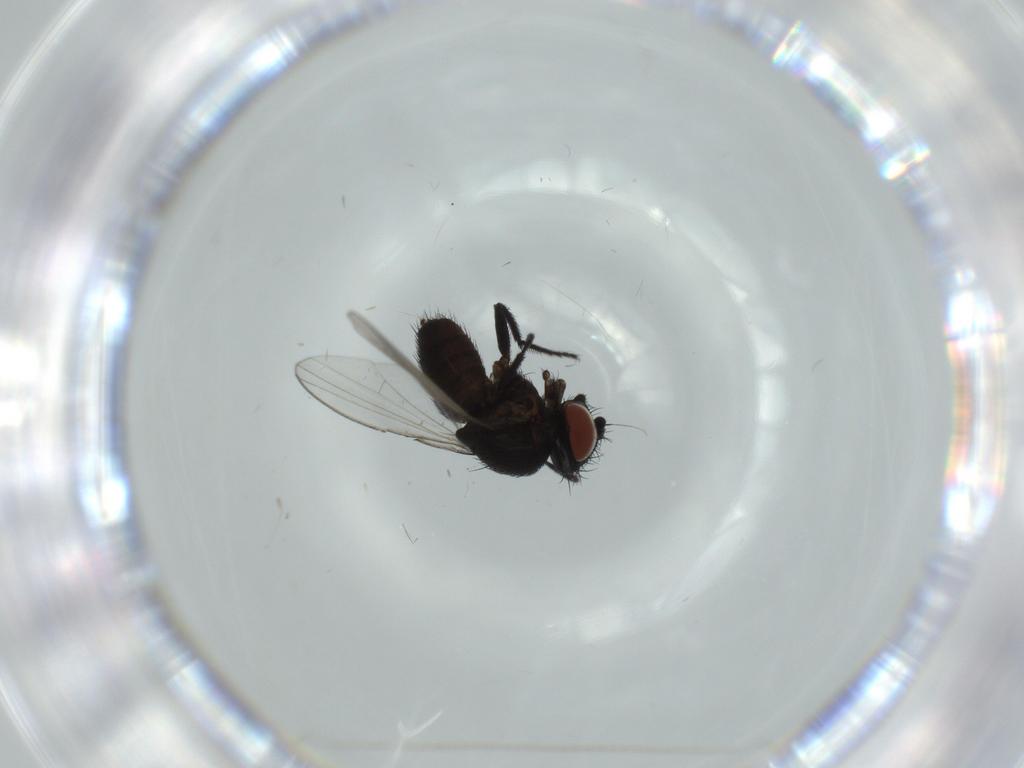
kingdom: Animalia
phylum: Arthropoda
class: Insecta
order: Diptera
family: Milichiidae
